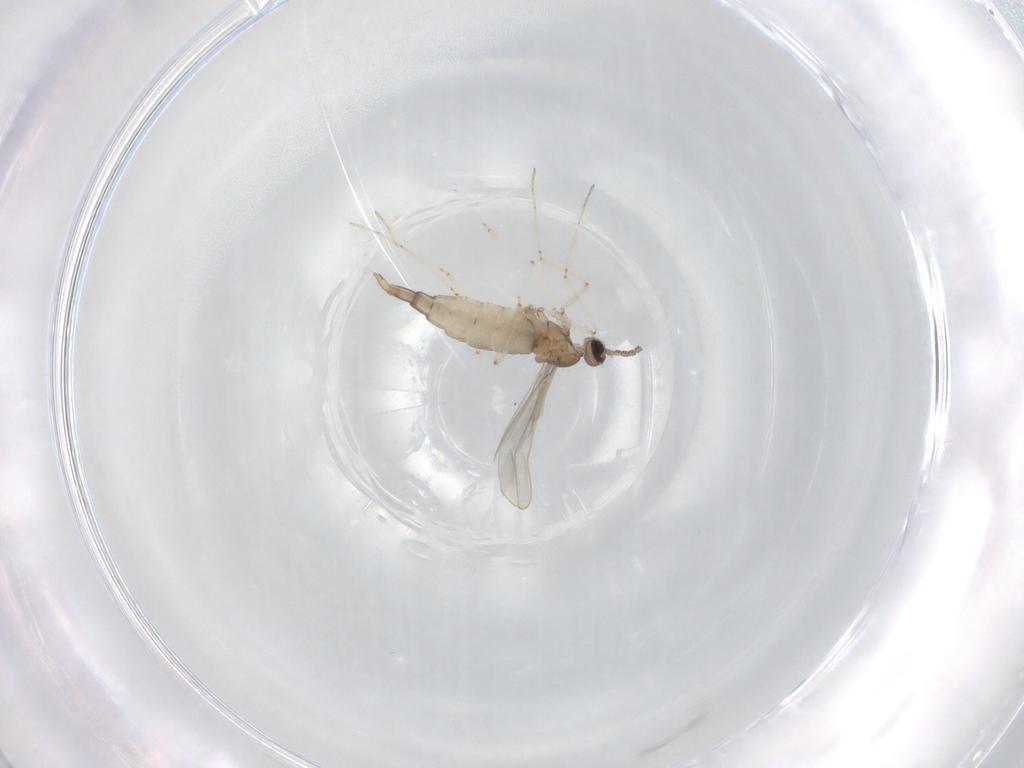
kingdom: Animalia
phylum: Arthropoda
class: Insecta
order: Diptera
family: Cecidomyiidae
